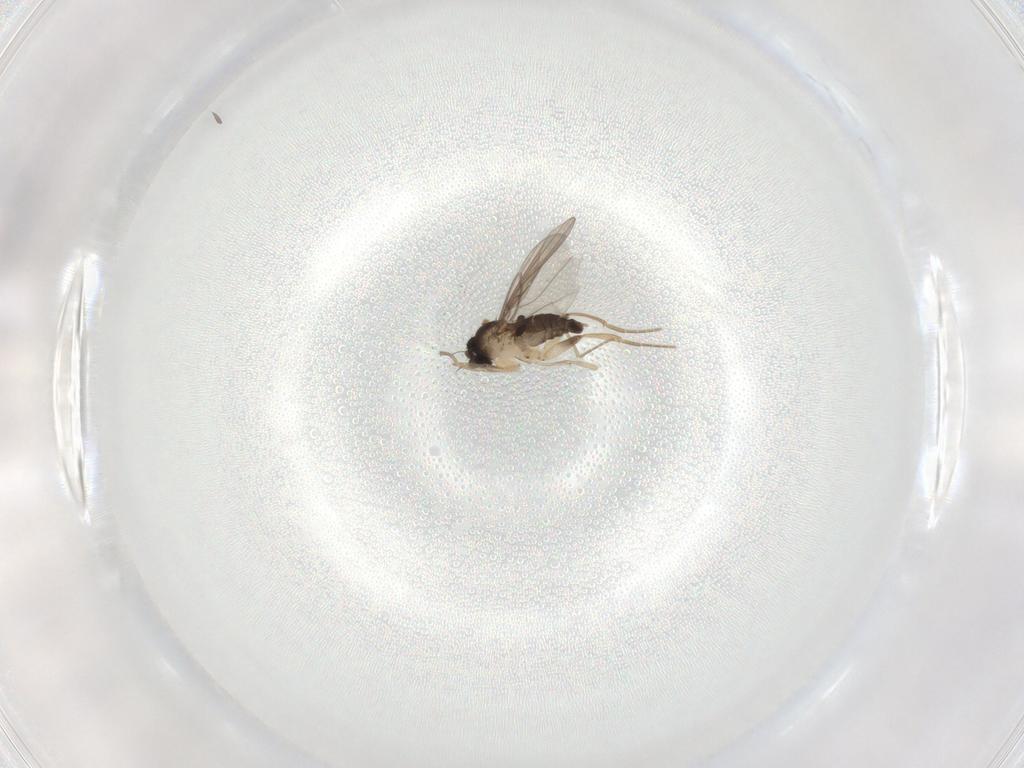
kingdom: Animalia
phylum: Arthropoda
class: Insecta
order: Diptera
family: Phoridae
